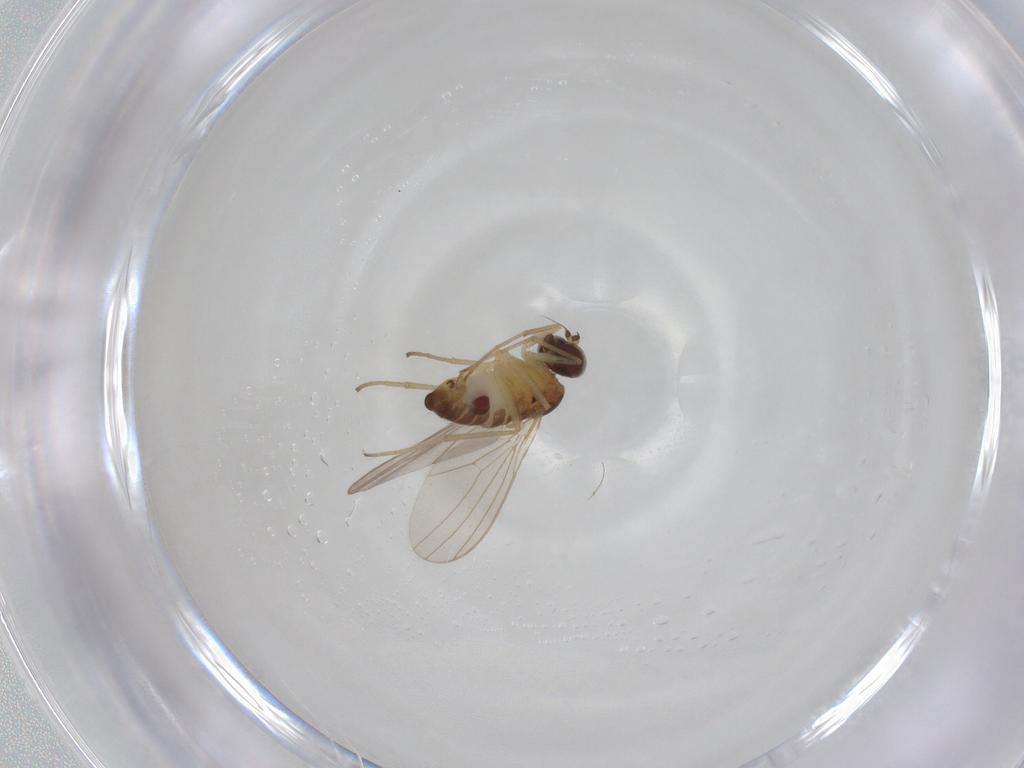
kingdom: Animalia
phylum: Arthropoda
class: Insecta
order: Diptera
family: Dolichopodidae
